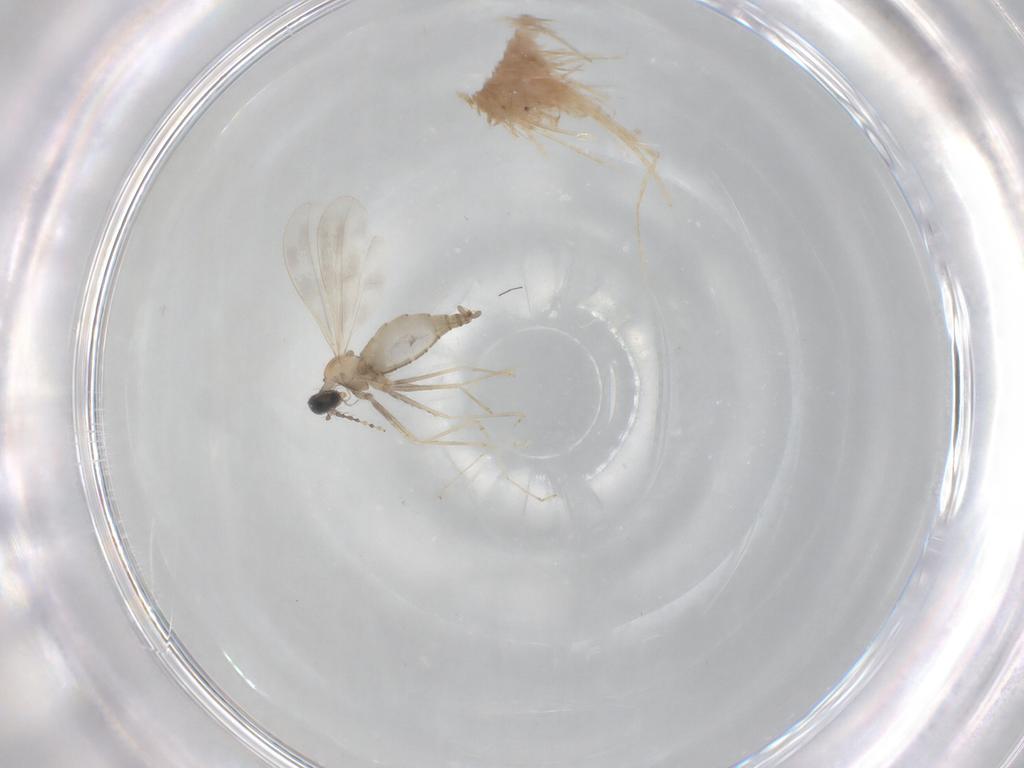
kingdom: Animalia
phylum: Arthropoda
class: Insecta
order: Diptera
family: Cecidomyiidae
